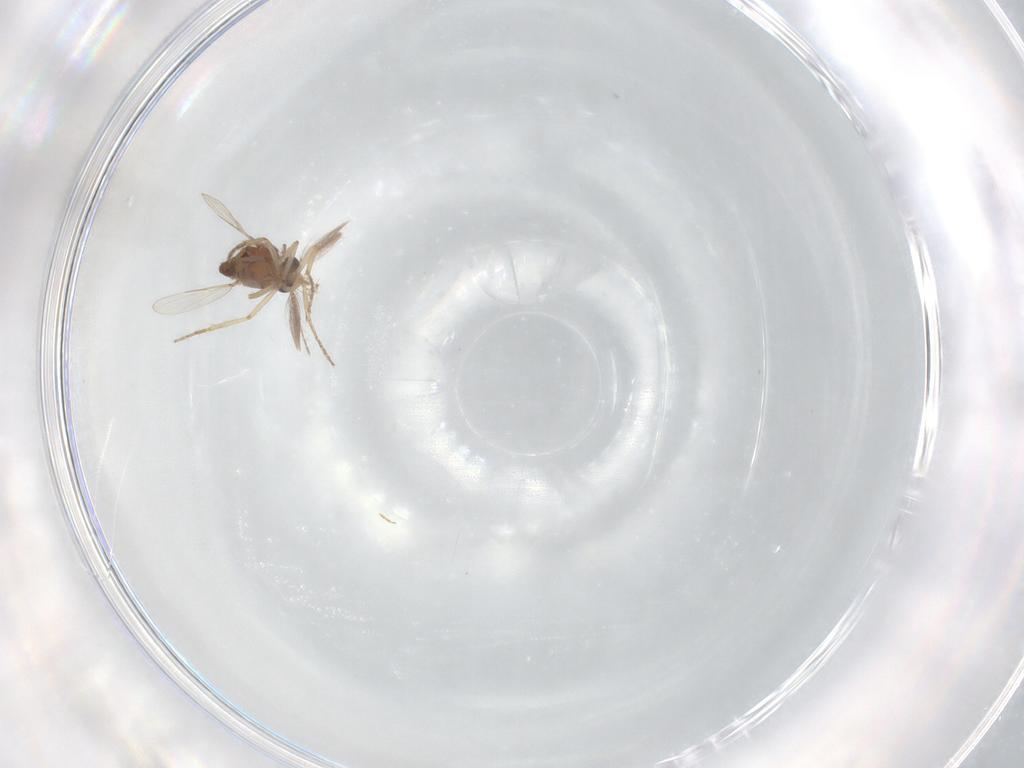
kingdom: Animalia
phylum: Arthropoda
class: Insecta
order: Diptera
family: Ceratopogonidae
